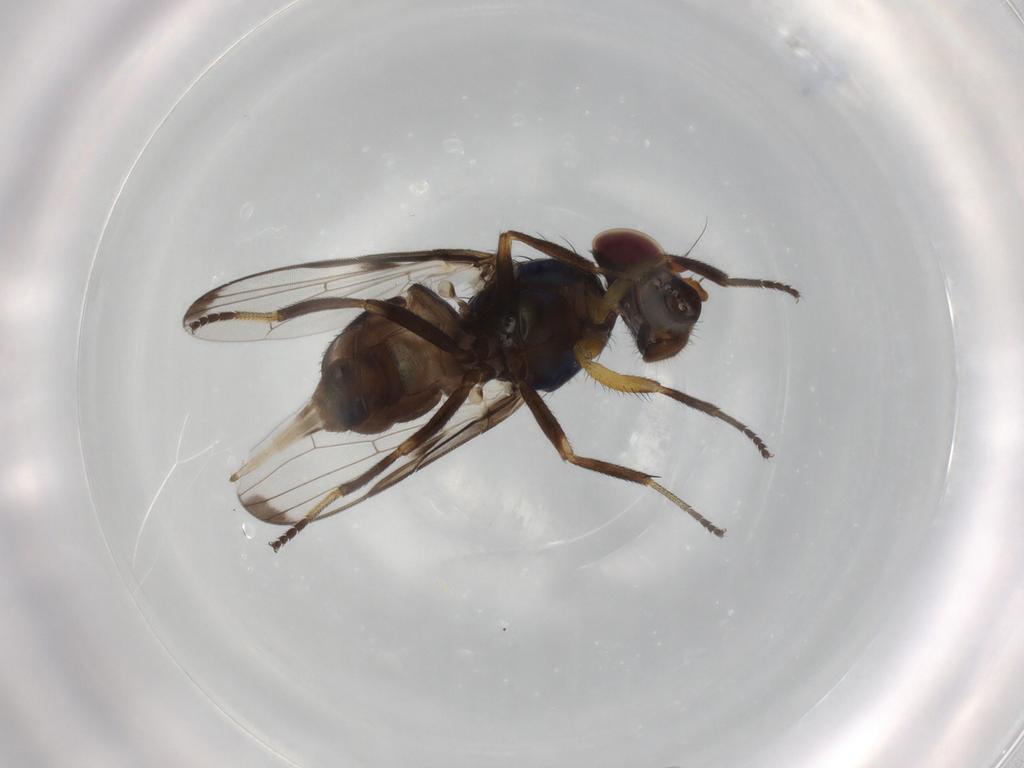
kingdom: Animalia
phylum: Arthropoda
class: Insecta
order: Diptera
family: Ulidiidae
